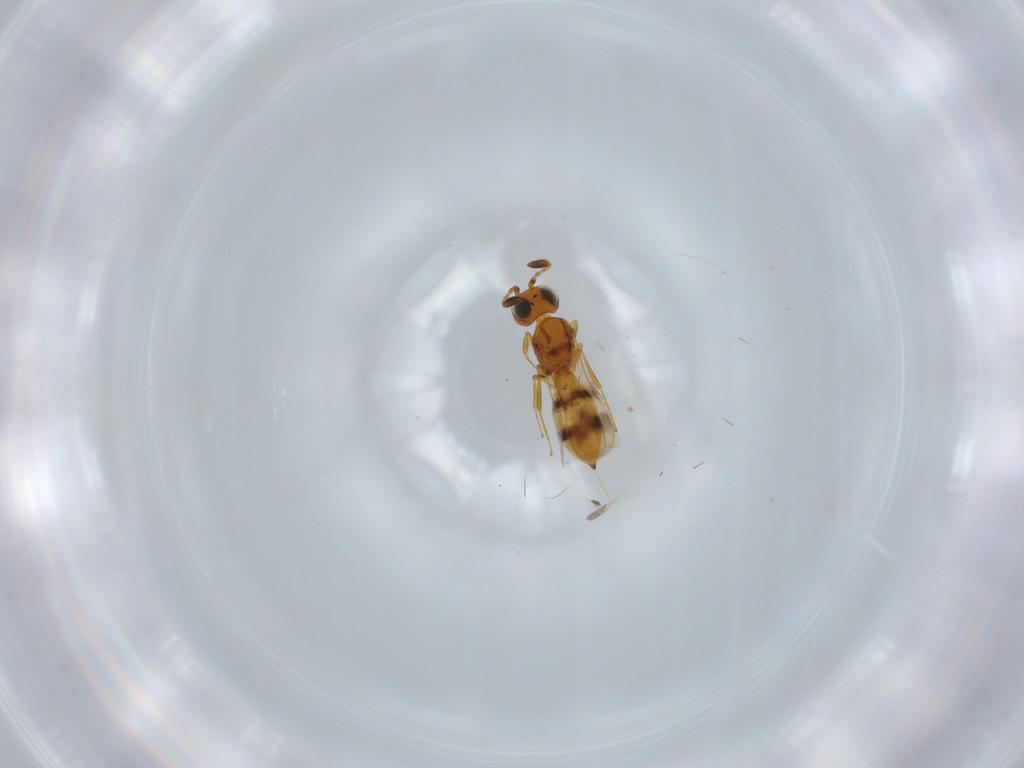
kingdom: Animalia
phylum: Arthropoda
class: Insecta
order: Hymenoptera
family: Scelionidae
